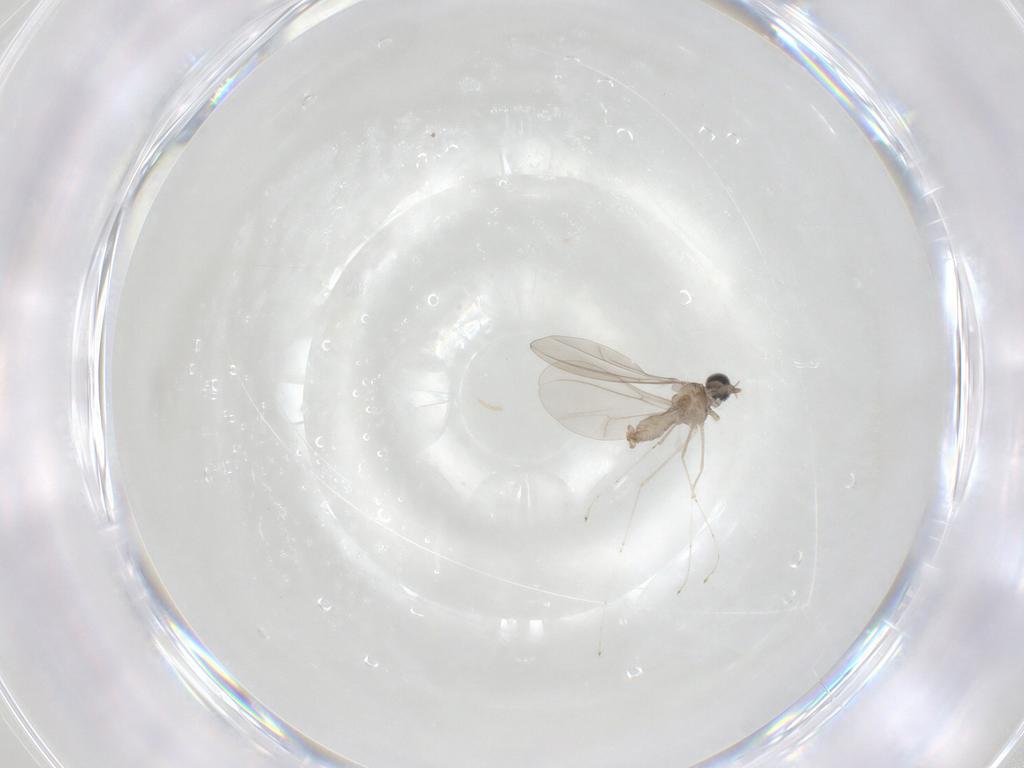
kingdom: Animalia
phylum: Arthropoda
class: Insecta
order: Diptera
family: Cecidomyiidae
